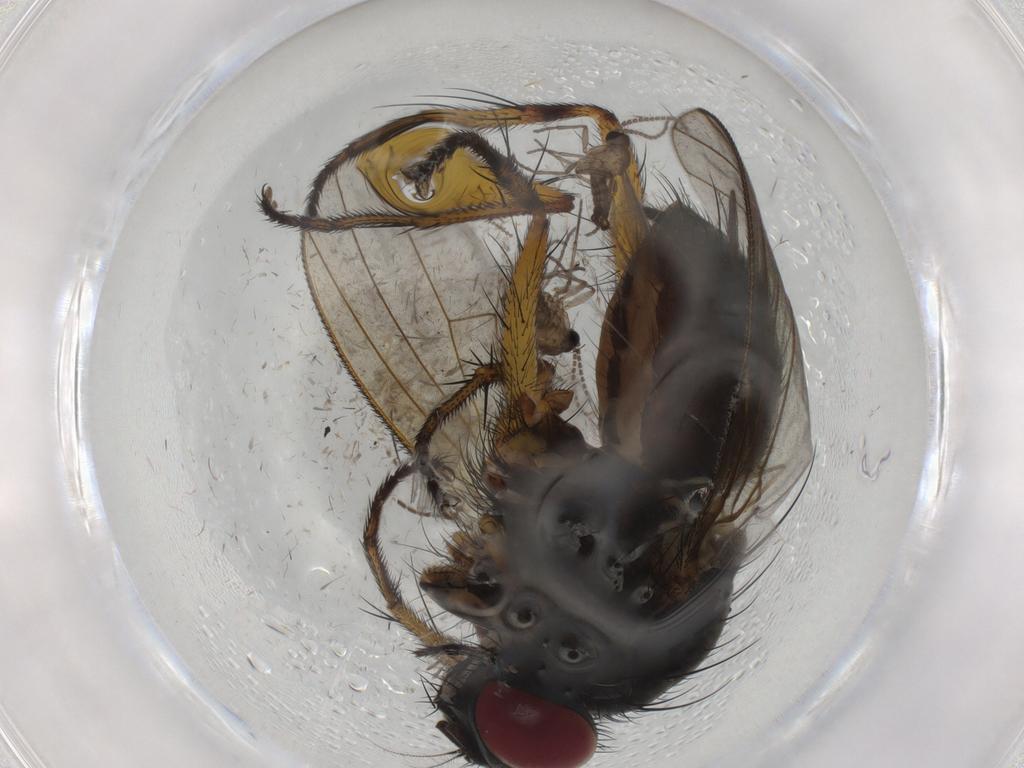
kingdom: Animalia
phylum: Arthropoda
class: Insecta
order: Diptera
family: Cecidomyiidae
